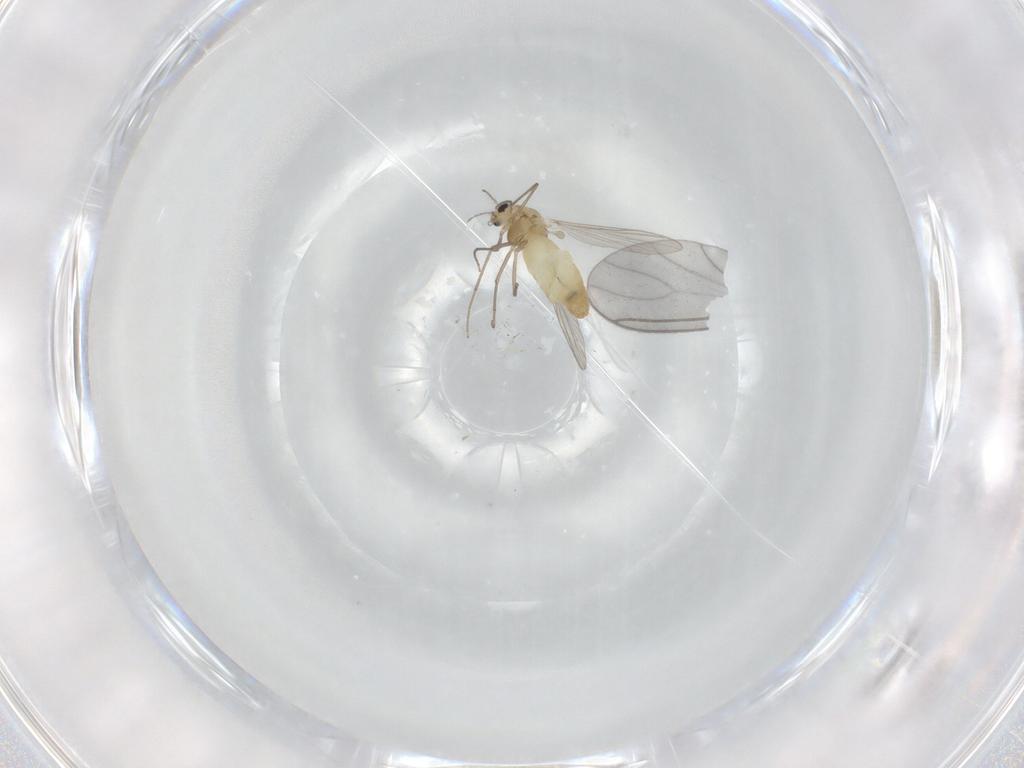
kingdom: Animalia
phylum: Arthropoda
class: Insecta
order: Diptera
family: Chironomidae
